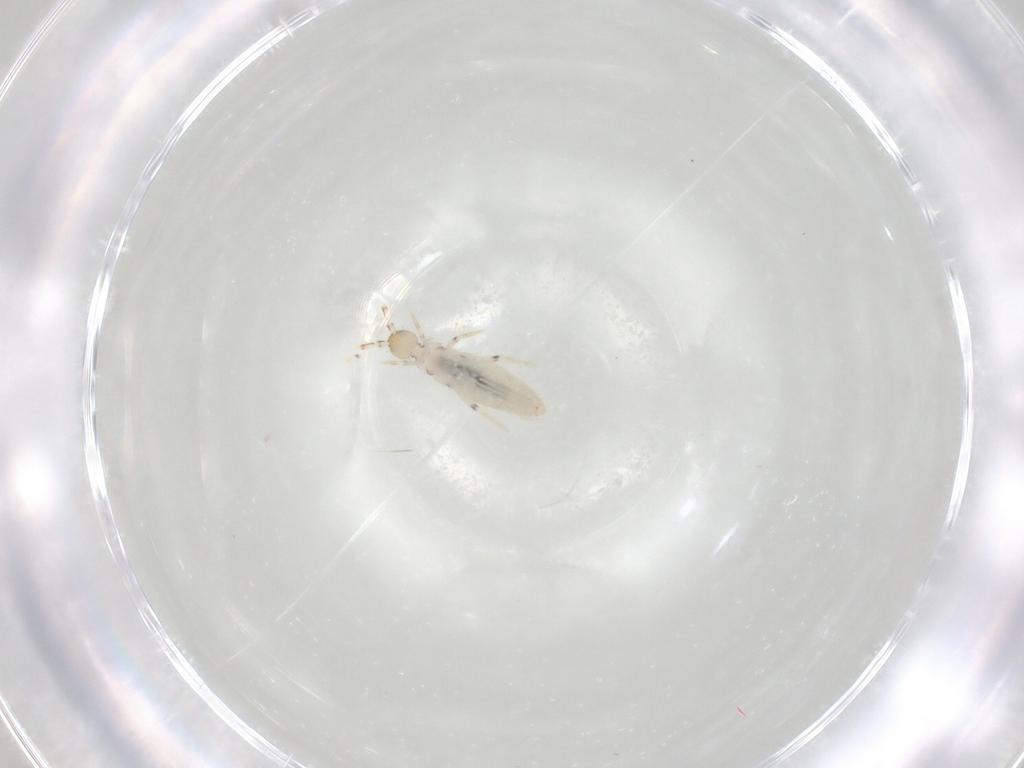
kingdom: Animalia
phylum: Arthropoda
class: Collembola
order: Entomobryomorpha
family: Entomobryidae
